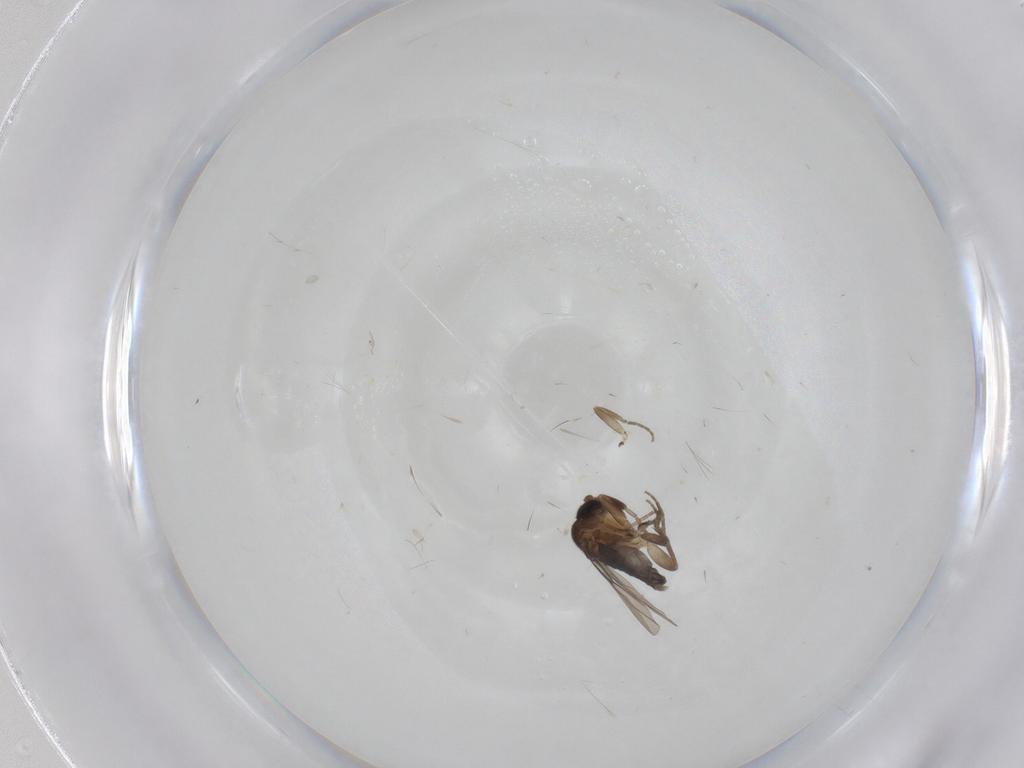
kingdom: Animalia
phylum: Arthropoda
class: Insecta
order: Diptera
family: Phoridae
